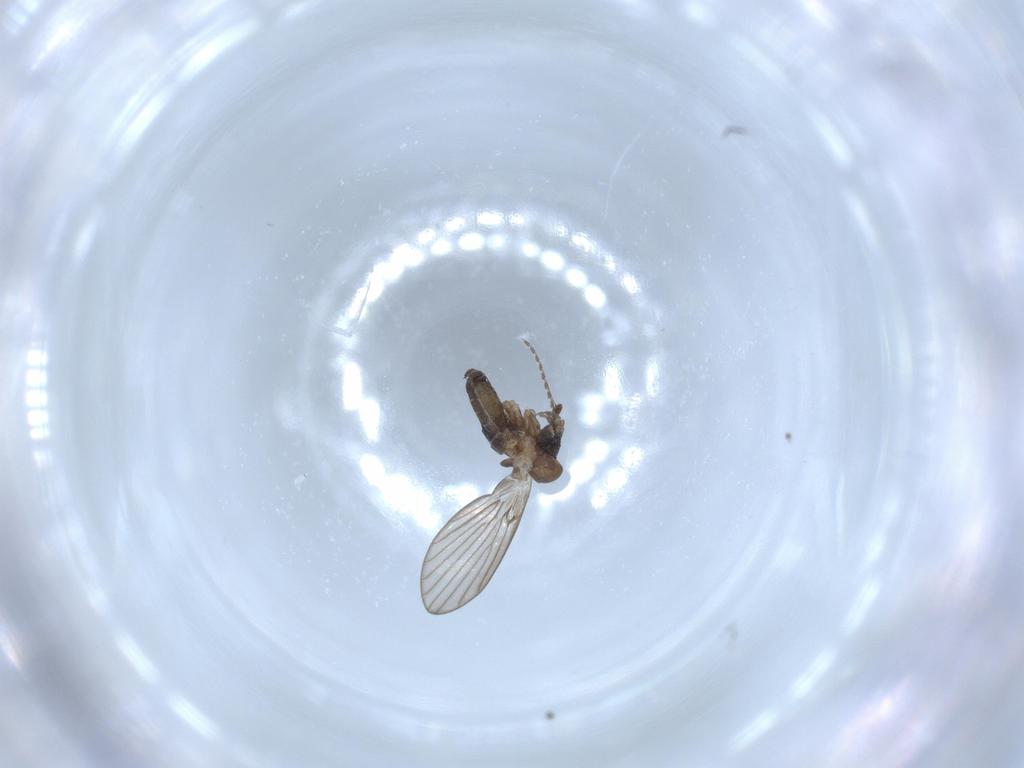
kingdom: Animalia
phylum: Arthropoda
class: Insecta
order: Diptera
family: Psychodidae
